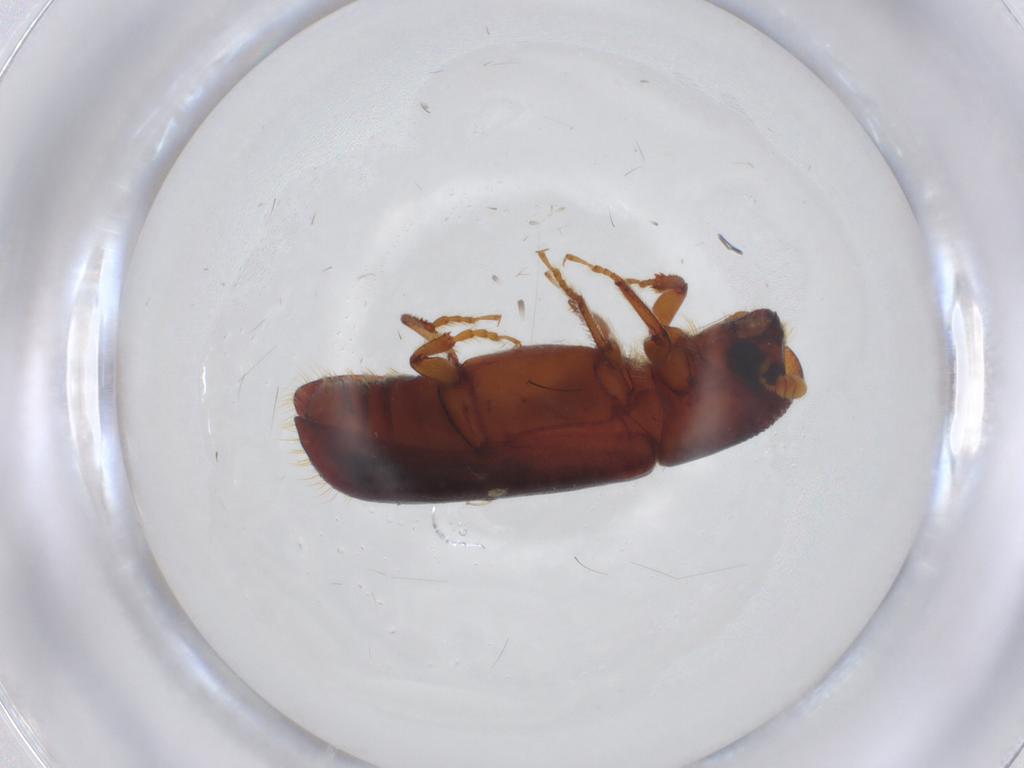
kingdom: Animalia
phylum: Arthropoda
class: Insecta
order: Coleoptera
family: Curculionidae
